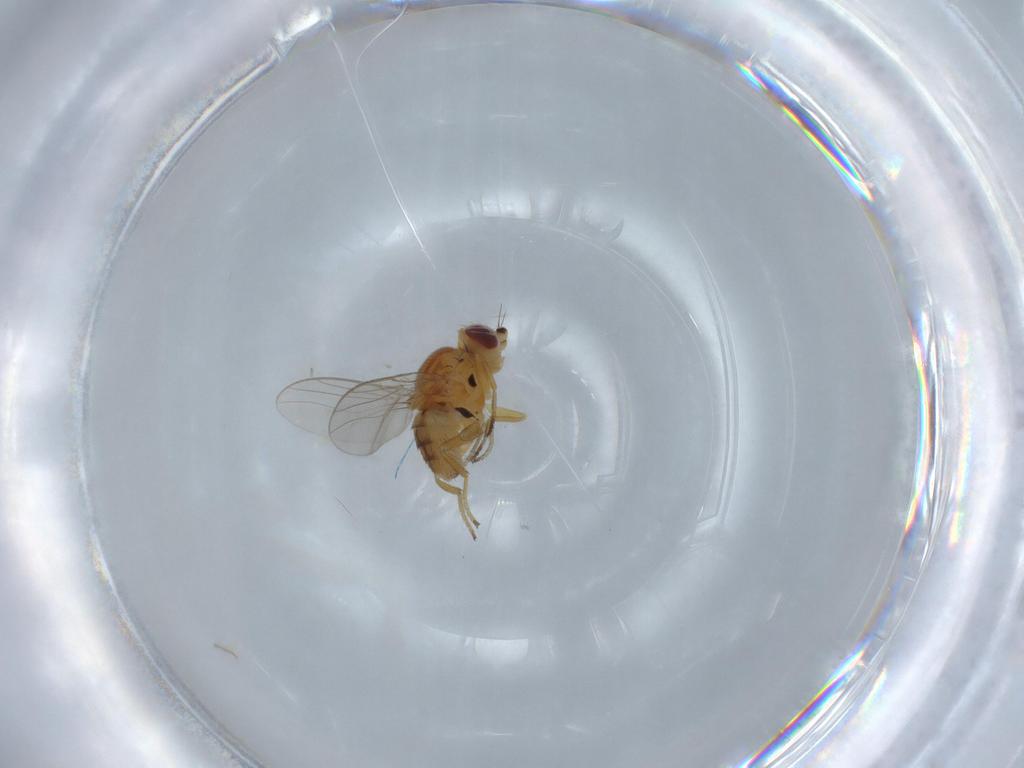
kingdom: Animalia
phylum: Arthropoda
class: Insecta
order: Diptera
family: Chloropidae
